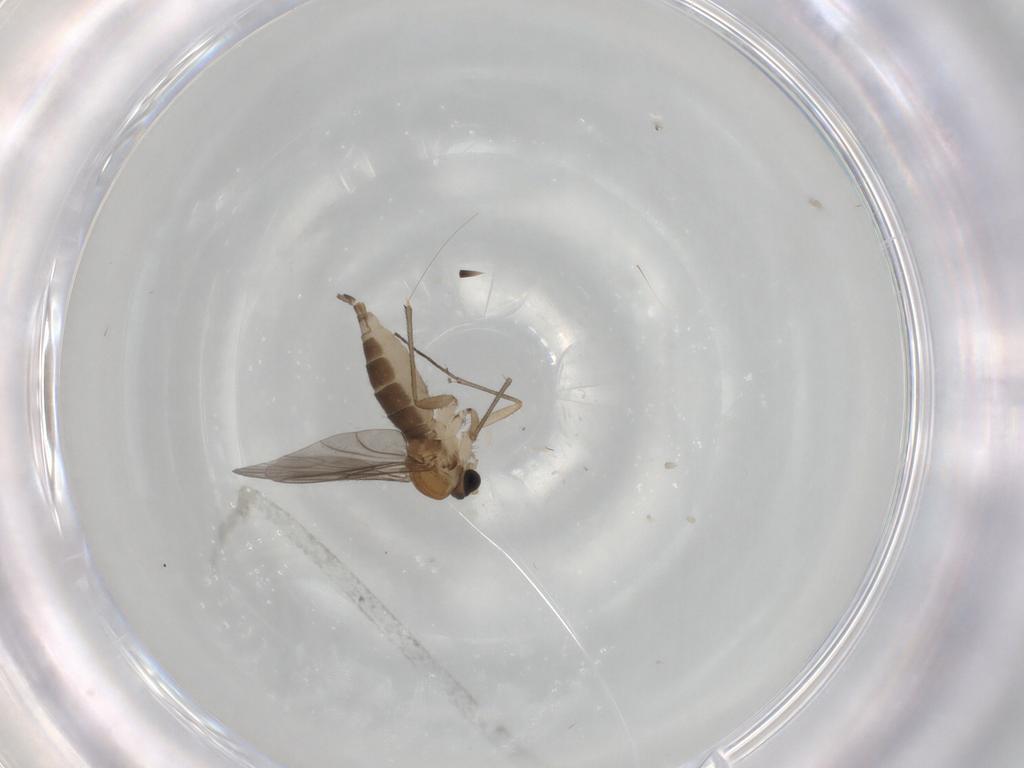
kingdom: Animalia
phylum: Arthropoda
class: Insecta
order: Diptera
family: Sciaridae
